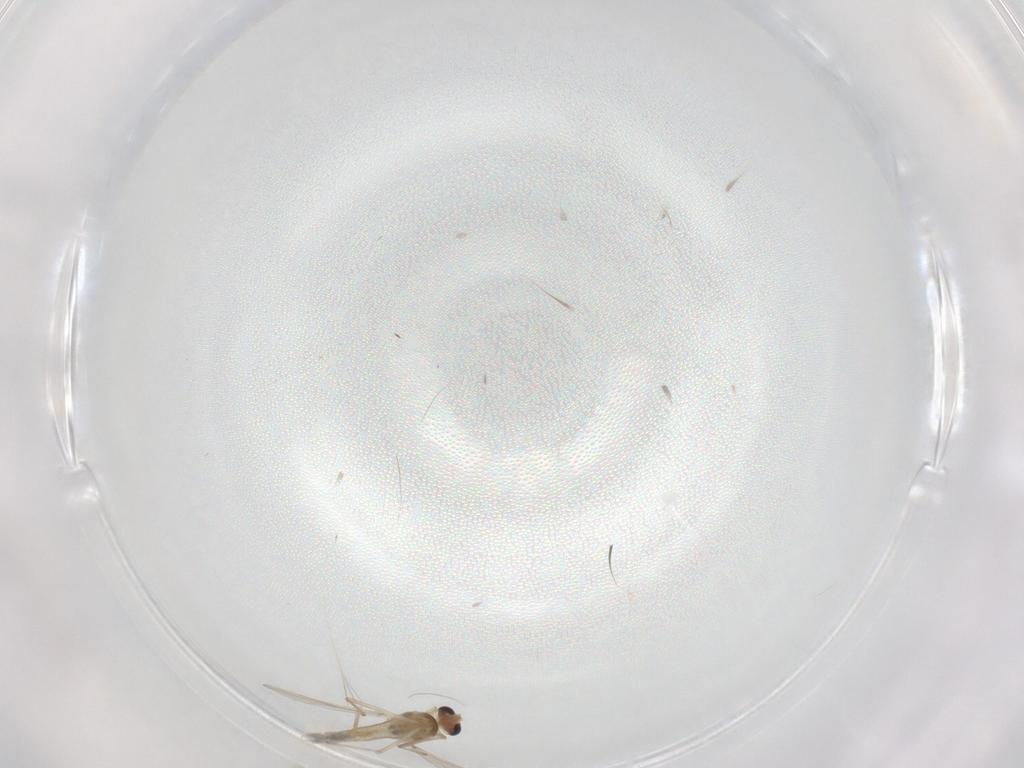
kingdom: Animalia
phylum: Arthropoda
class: Insecta
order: Diptera
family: Chironomidae
